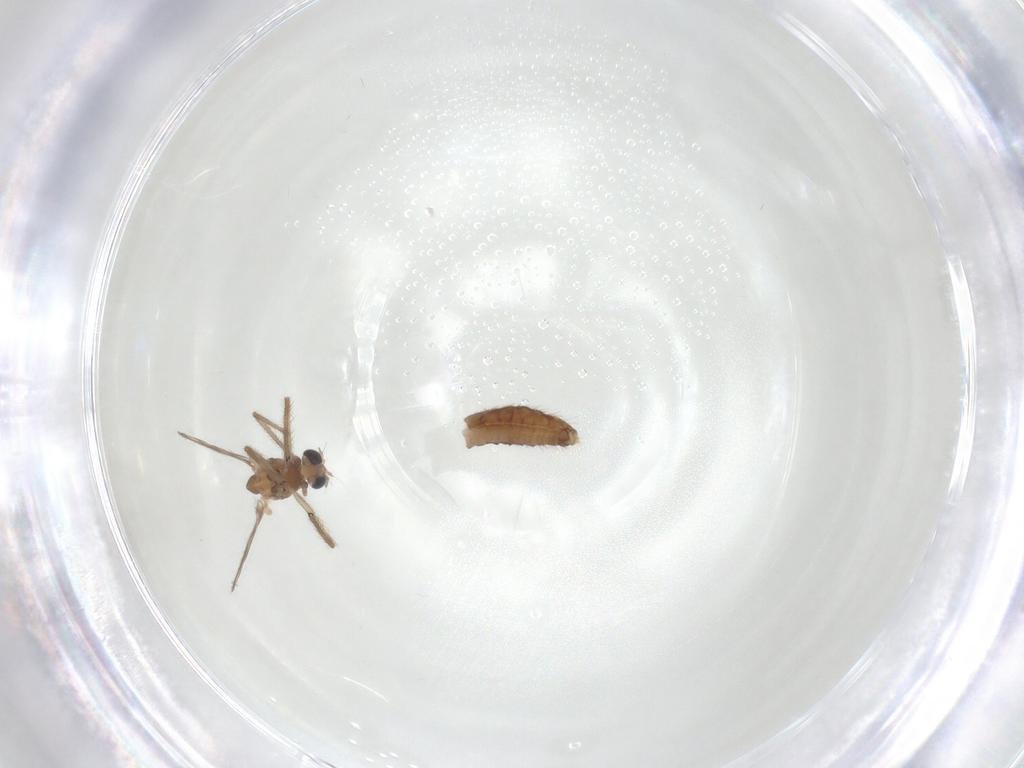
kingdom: Animalia
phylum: Arthropoda
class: Insecta
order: Diptera
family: Chironomidae
